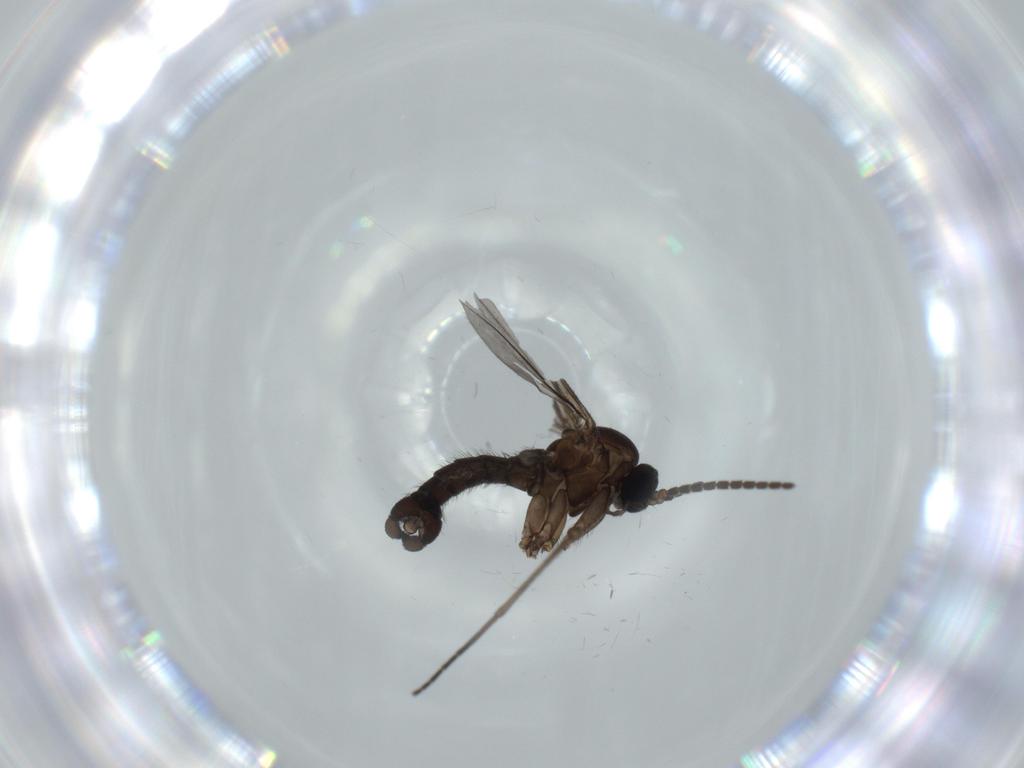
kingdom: Animalia
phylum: Arthropoda
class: Insecta
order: Diptera
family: Sciaridae
